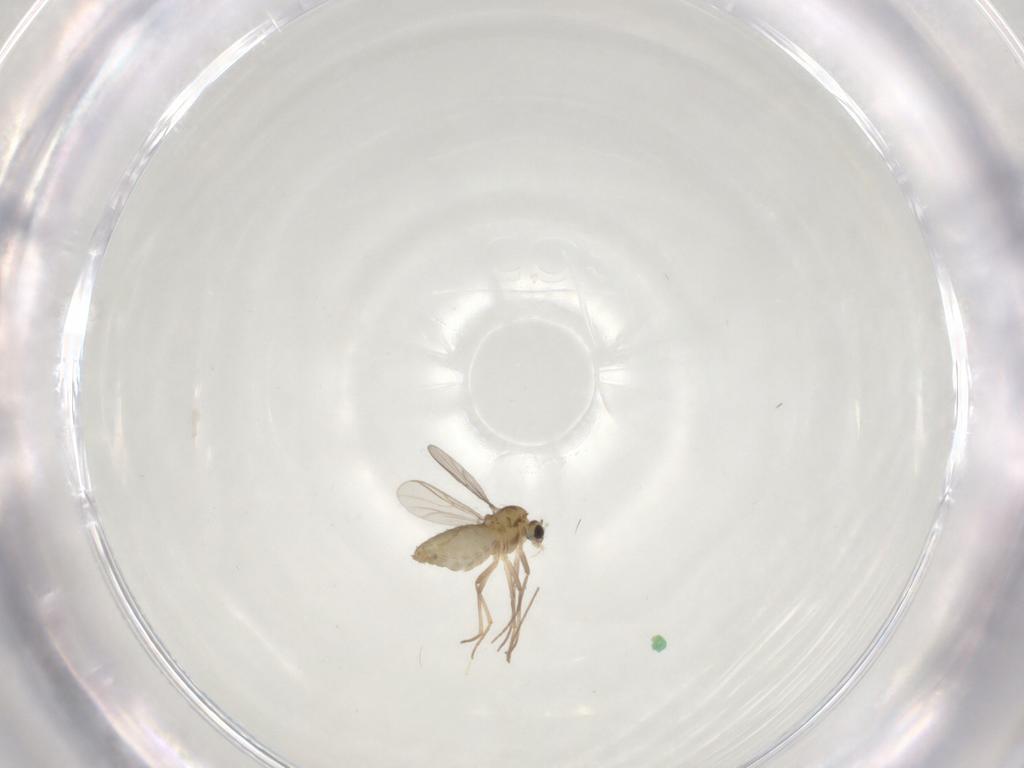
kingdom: Animalia
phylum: Arthropoda
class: Insecta
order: Diptera
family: Chironomidae
